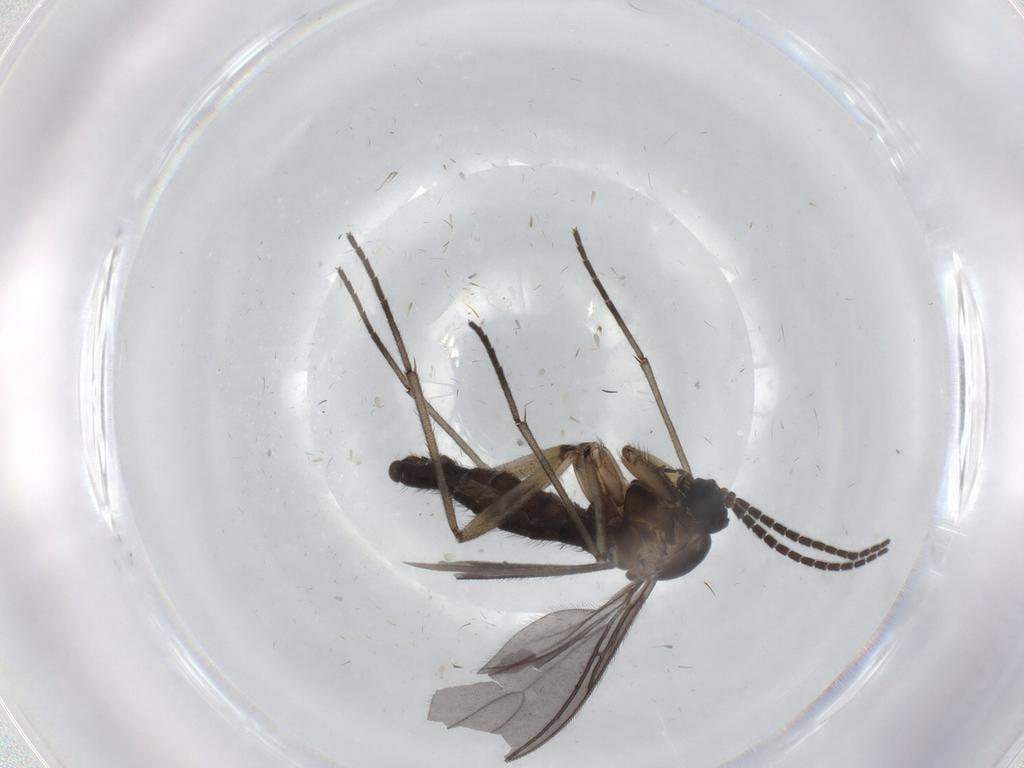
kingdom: Animalia
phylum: Arthropoda
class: Insecta
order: Diptera
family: Sciaridae
